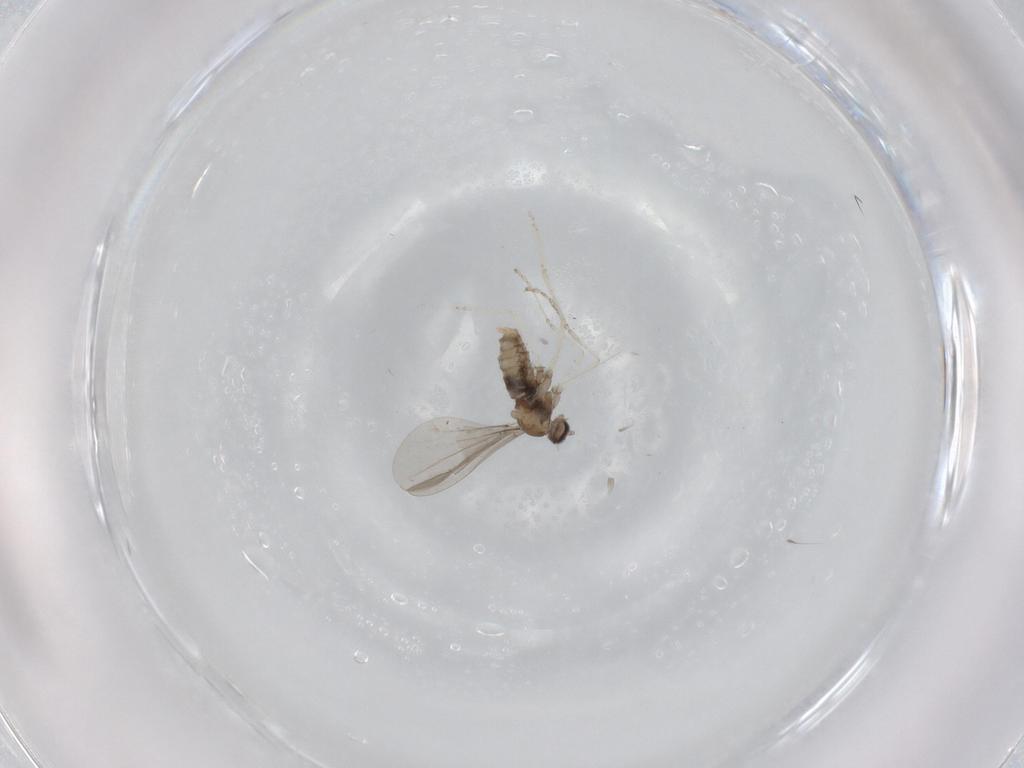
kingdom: Animalia
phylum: Arthropoda
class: Insecta
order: Diptera
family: Cecidomyiidae
